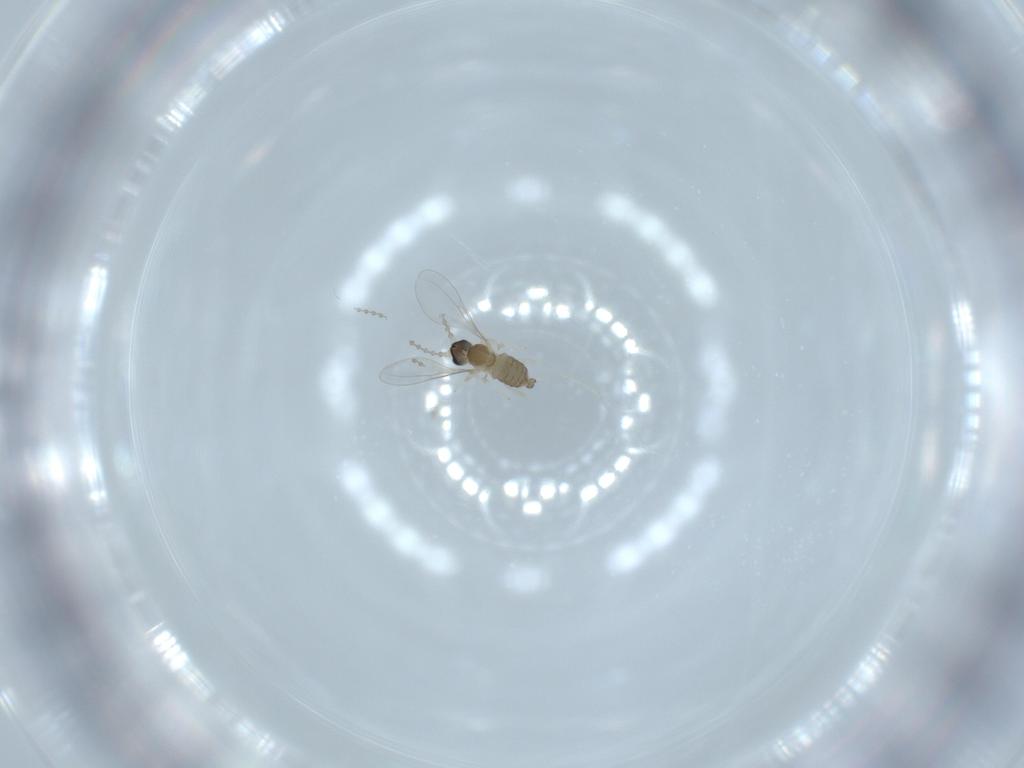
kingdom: Animalia
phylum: Arthropoda
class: Insecta
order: Diptera
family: Cecidomyiidae
